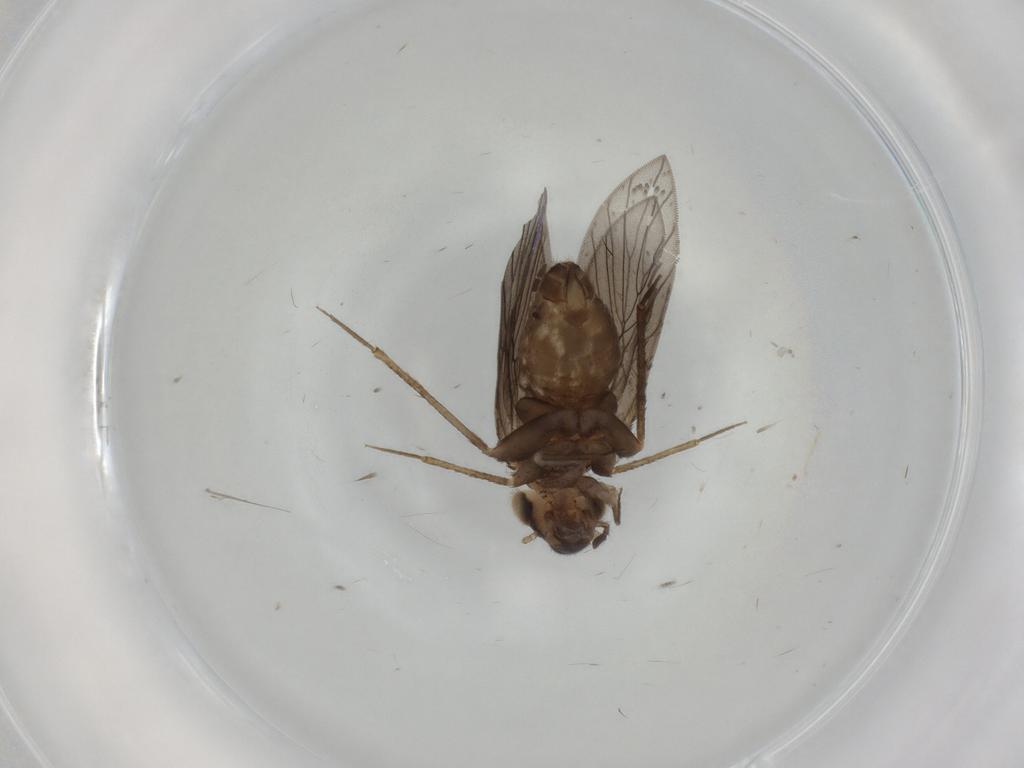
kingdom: Animalia
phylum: Arthropoda
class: Insecta
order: Psocodea
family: Lepidopsocidae
